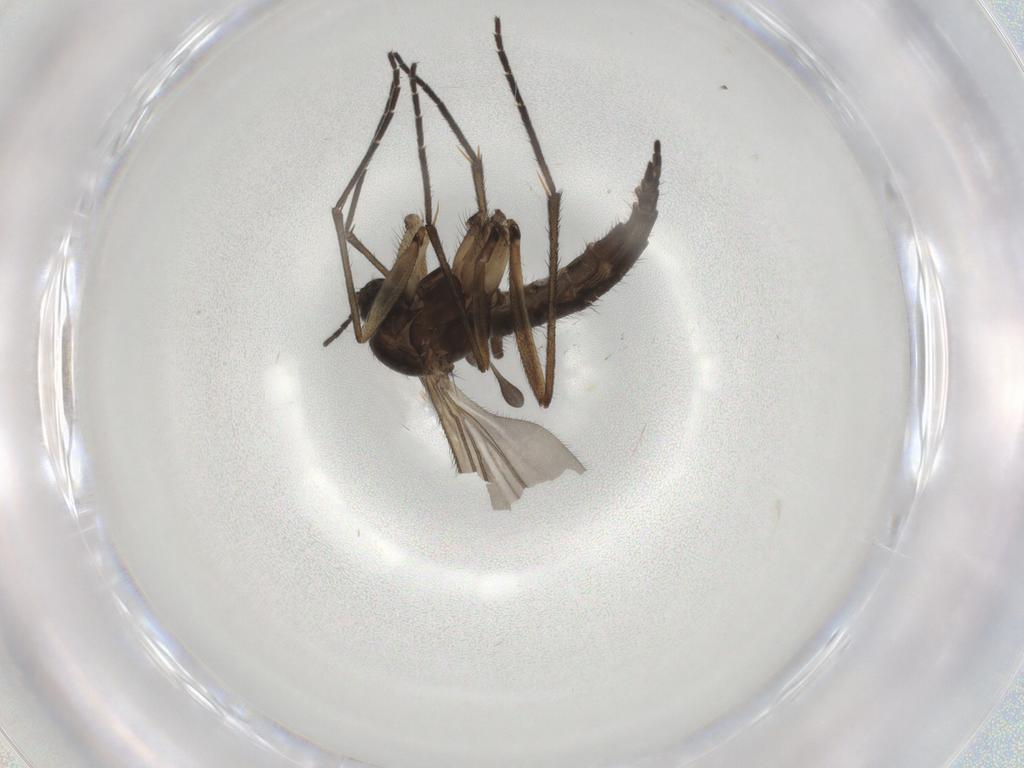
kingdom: Animalia
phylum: Arthropoda
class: Insecta
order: Diptera
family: Sciaridae
